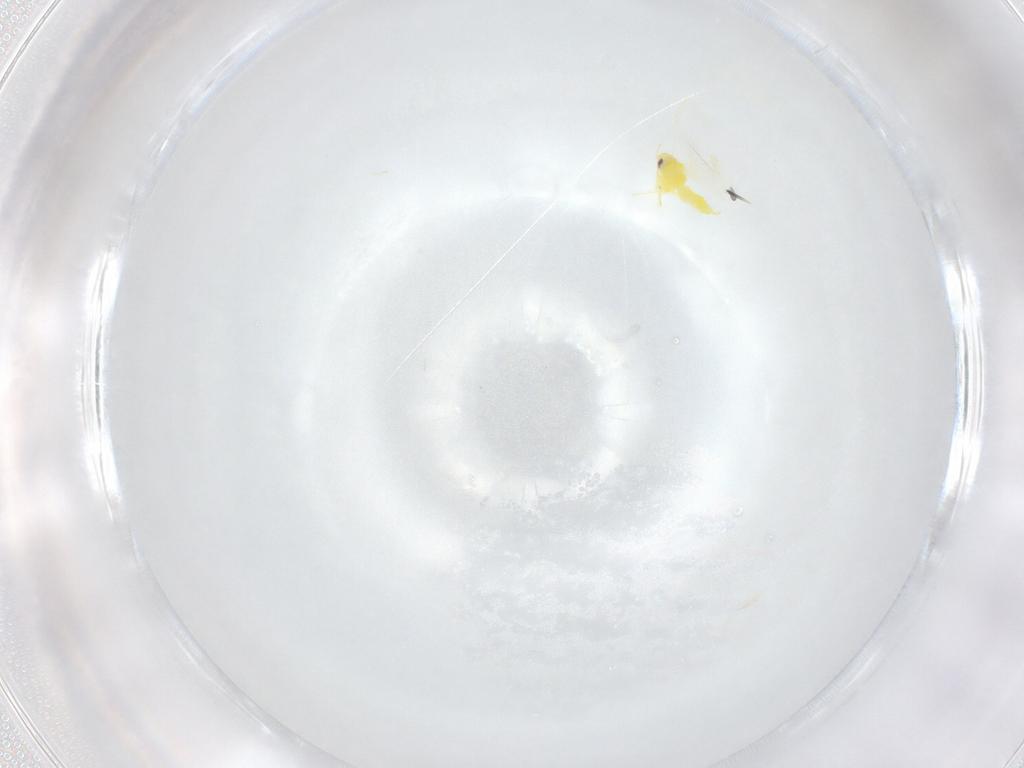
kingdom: Animalia
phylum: Arthropoda
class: Insecta
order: Hemiptera
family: Aleyrodidae
